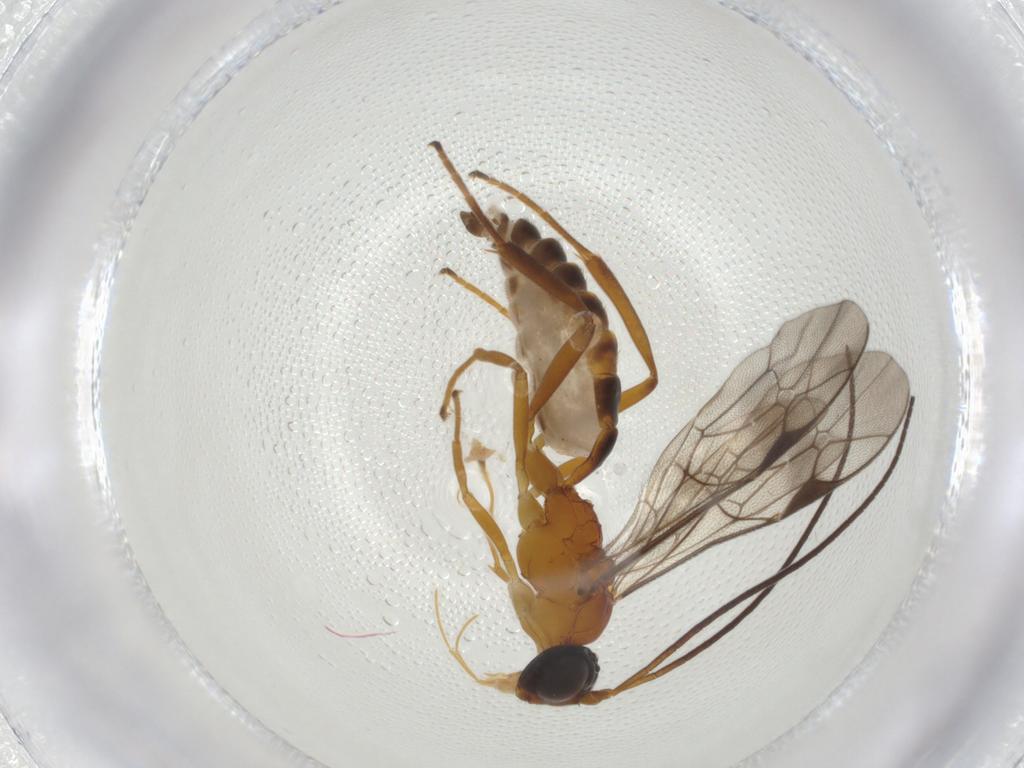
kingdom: Animalia
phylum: Arthropoda
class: Insecta
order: Hymenoptera
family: Ichneumonidae
